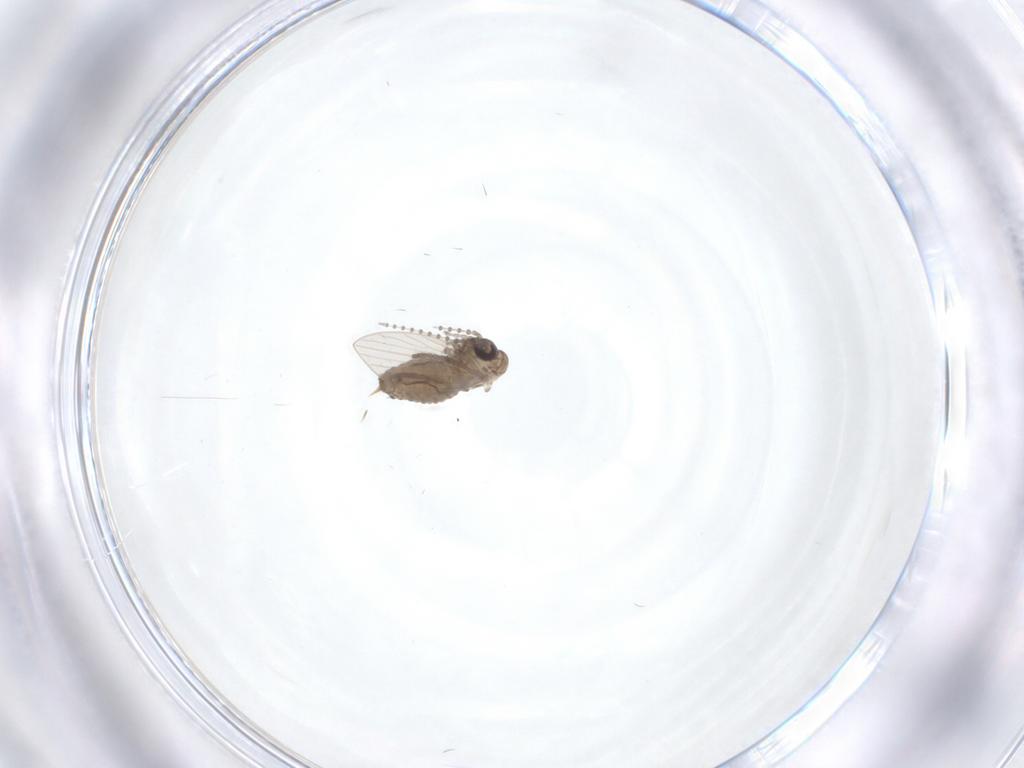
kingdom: Animalia
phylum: Arthropoda
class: Insecta
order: Diptera
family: Psychodidae
